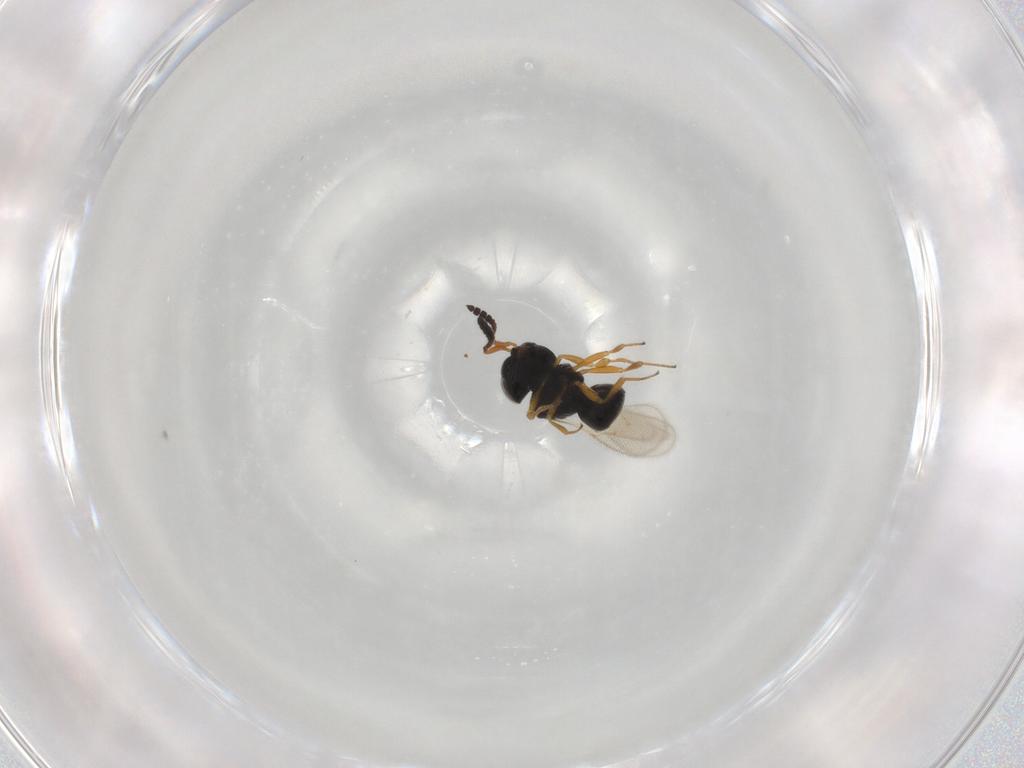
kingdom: Animalia
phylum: Arthropoda
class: Insecta
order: Hymenoptera
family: Scelionidae
